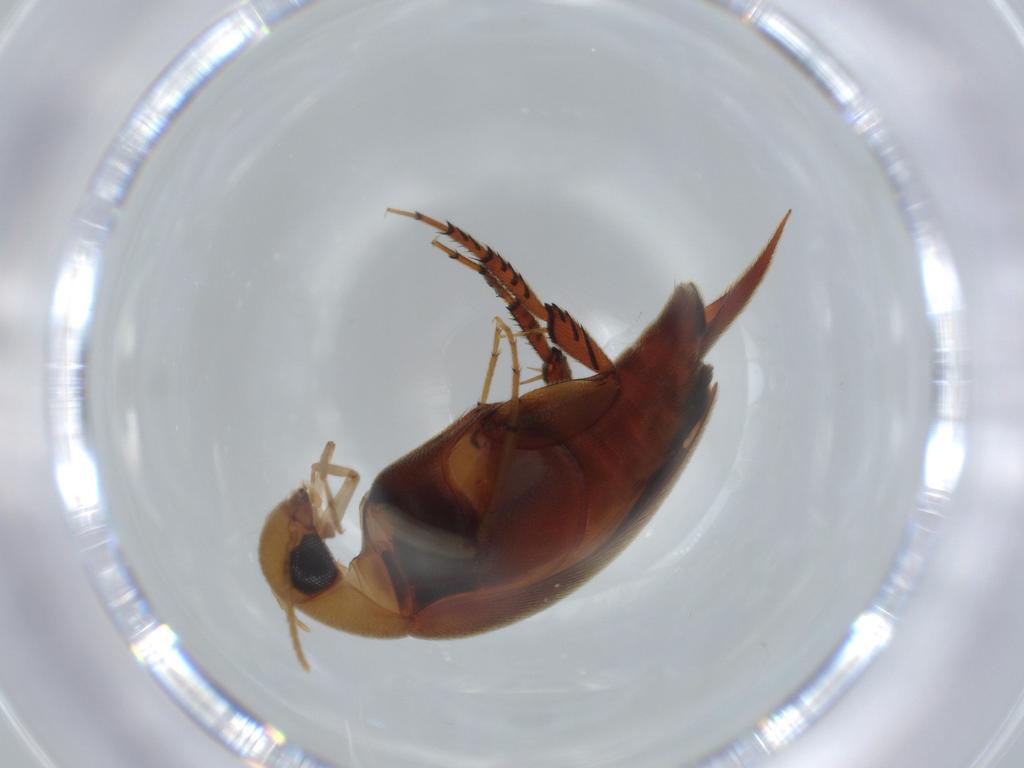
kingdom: Animalia
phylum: Arthropoda
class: Insecta
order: Coleoptera
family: Coccinellidae
